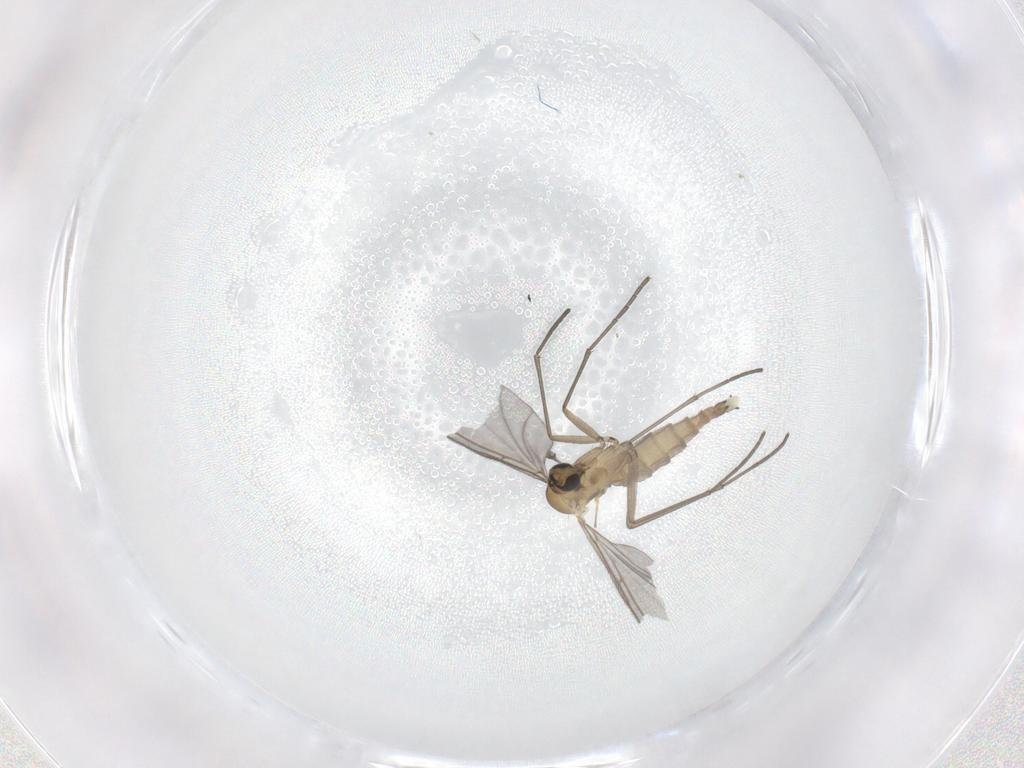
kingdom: Animalia
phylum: Arthropoda
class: Insecta
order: Diptera
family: Sciaridae
